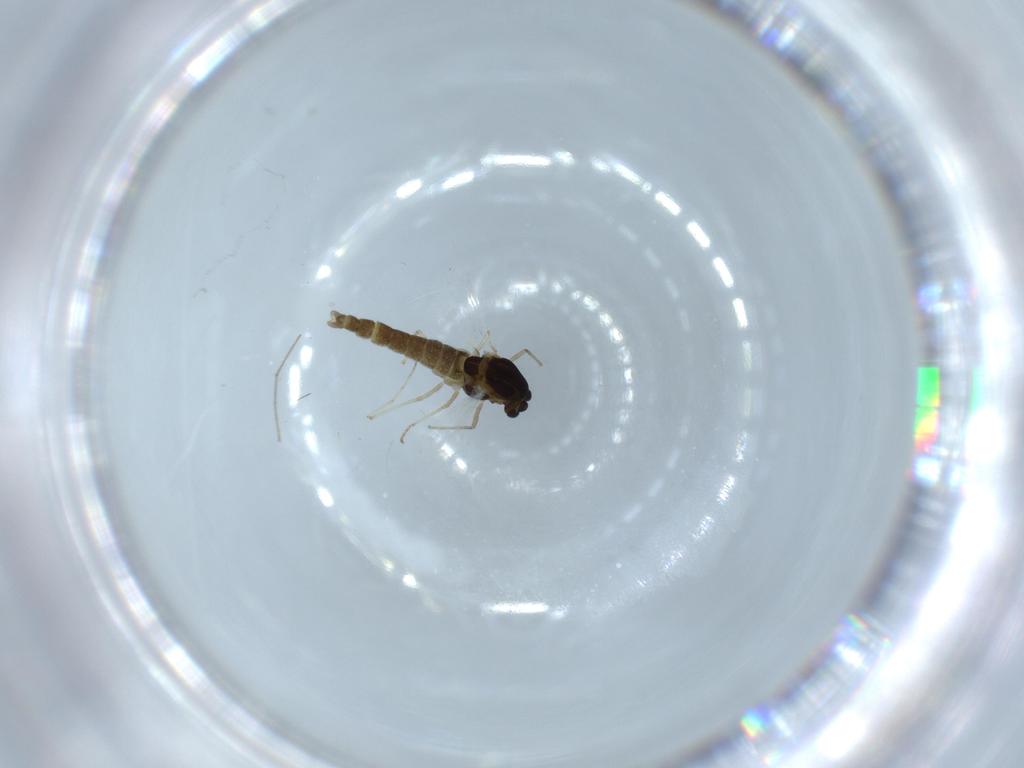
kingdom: Animalia
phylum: Arthropoda
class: Insecta
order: Diptera
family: Chironomidae
